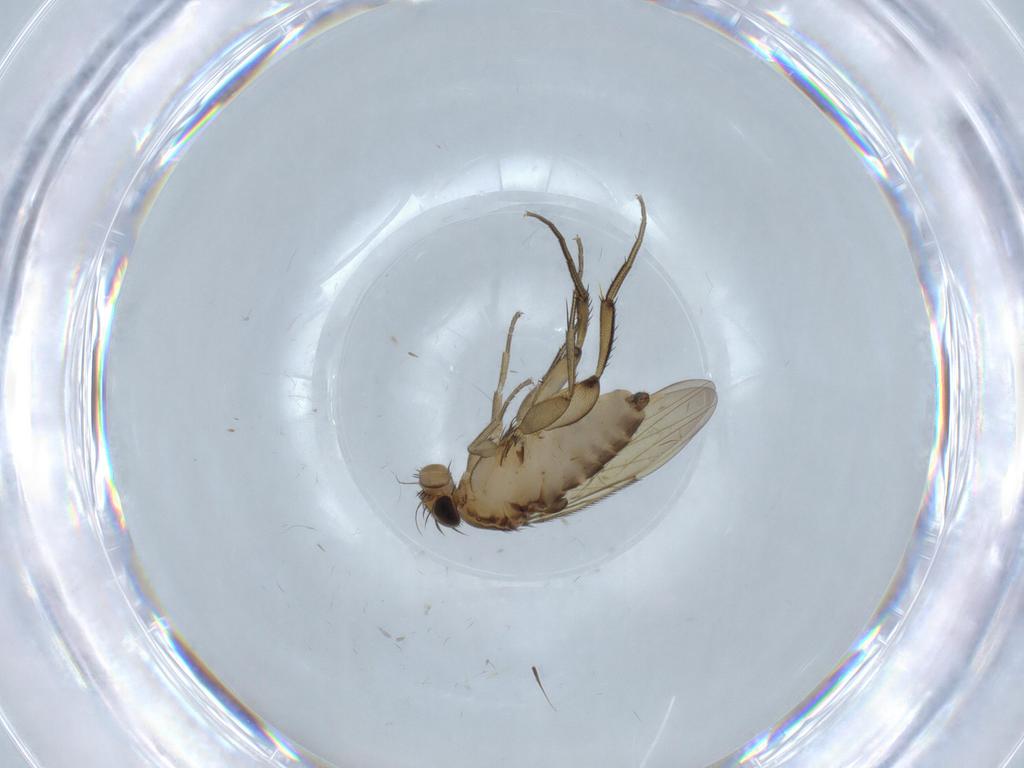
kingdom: Animalia
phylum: Arthropoda
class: Insecta
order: Diptera
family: Phoridae
